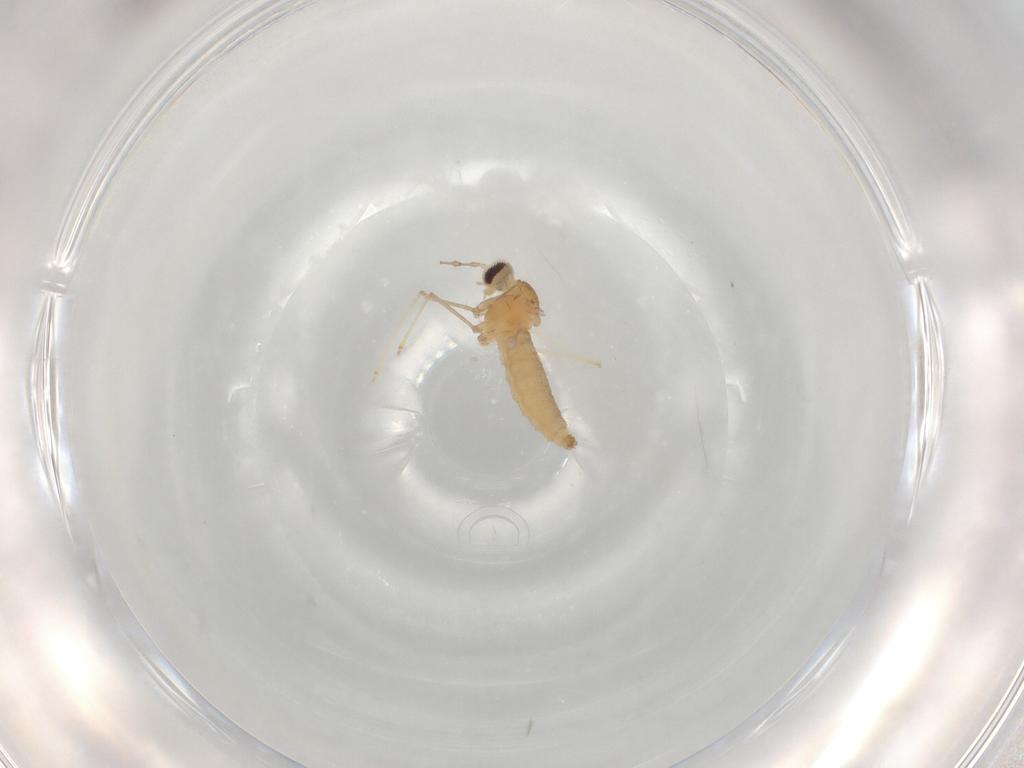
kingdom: Animalia
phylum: Arthropoda
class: Insecta
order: Diptera
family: Cecidomyiidae
